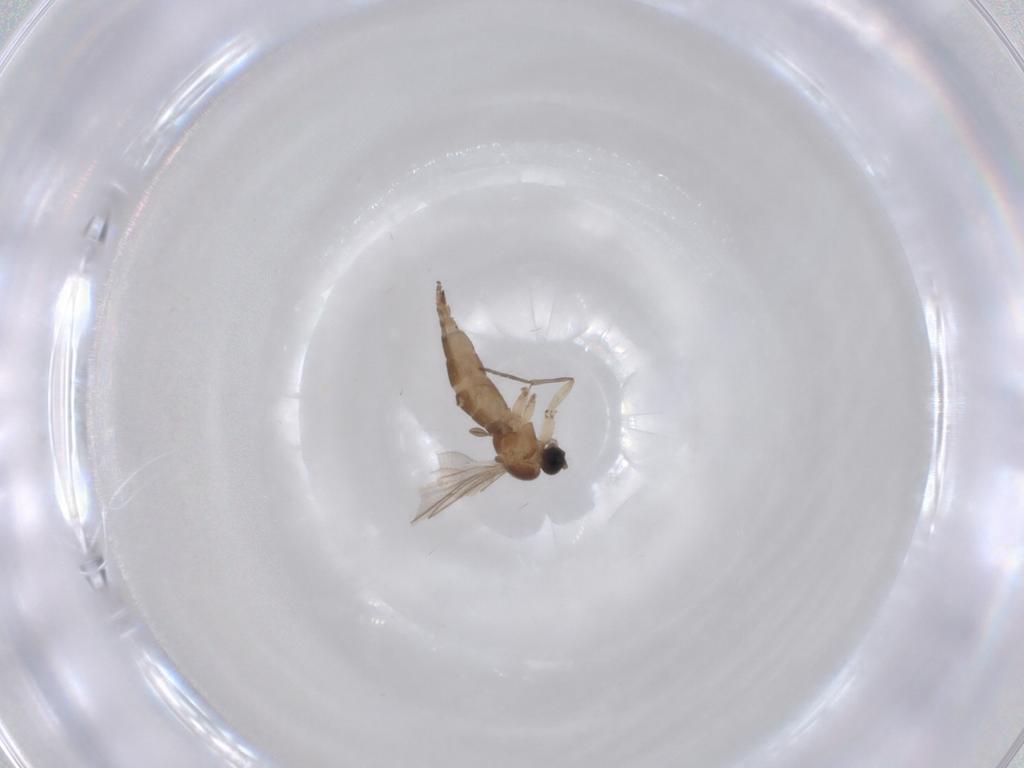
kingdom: Animalia
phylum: Arthropoda
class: Insecta
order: Diptera
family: Sciaridae
